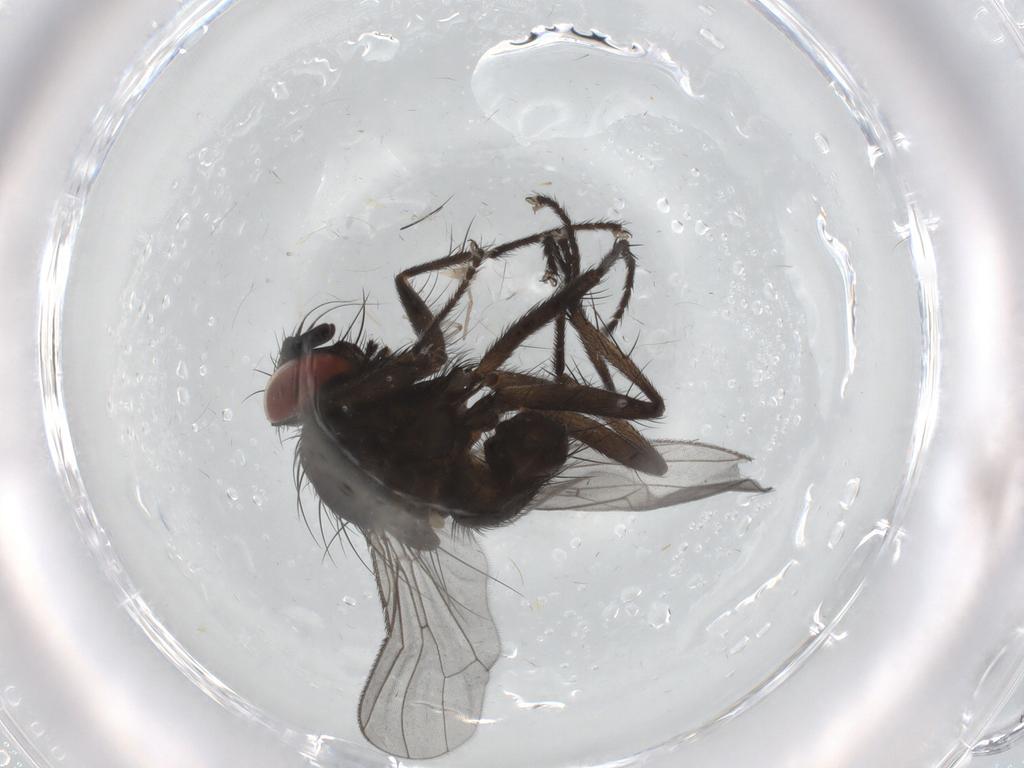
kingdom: Animalia
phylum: Arthropoda
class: Insecta
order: Diptera
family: Muscidae
